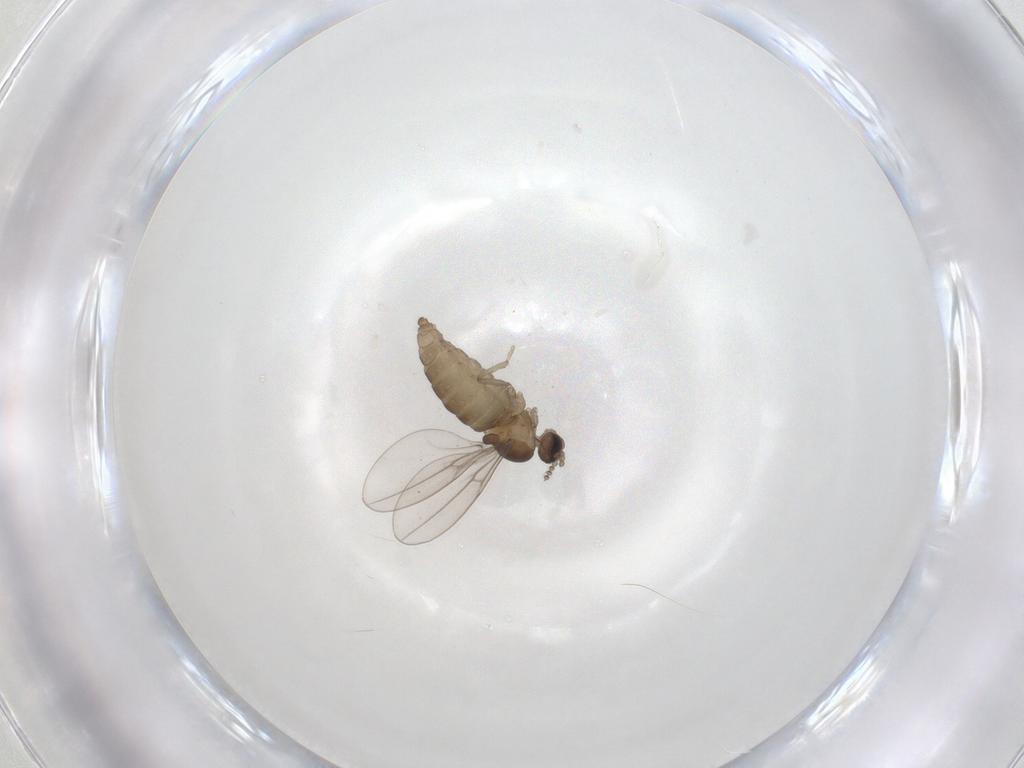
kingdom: Animalia
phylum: Arthropoda
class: Insecta
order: Diptera
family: Cecidomyiidae
